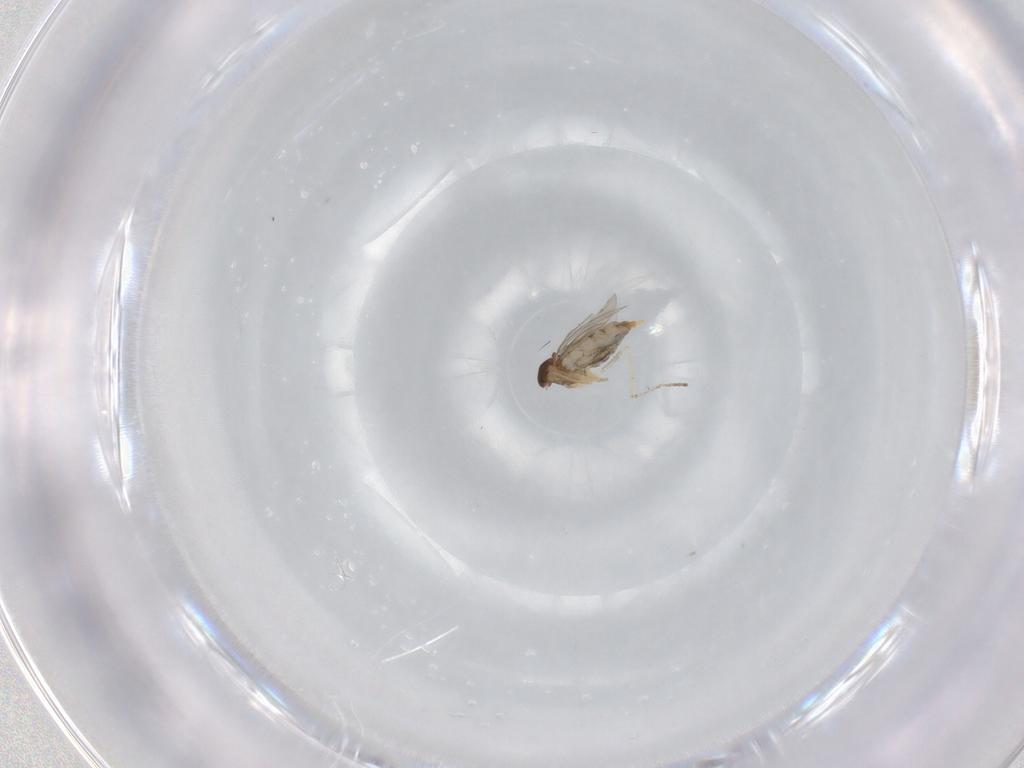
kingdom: Animalia
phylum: Arthropoda
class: Insecta
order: Diptera
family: Cecidomyiidae
